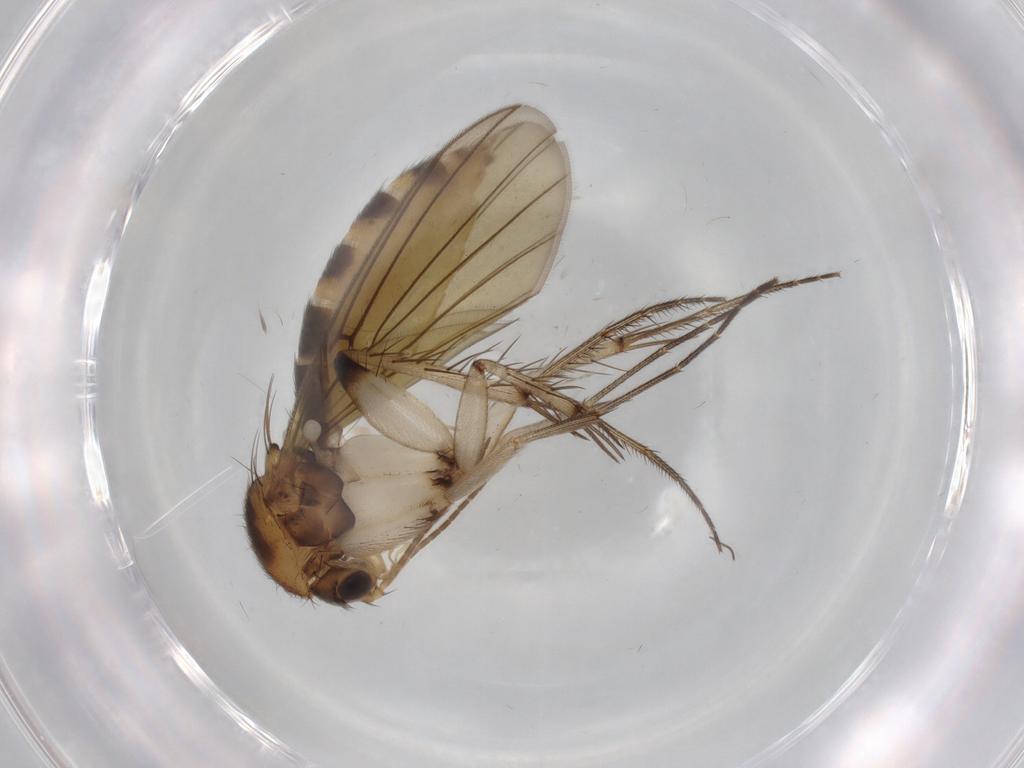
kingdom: Animalia
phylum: Arthropoda
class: Insecta
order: Diptera
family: Mycetophilidae
